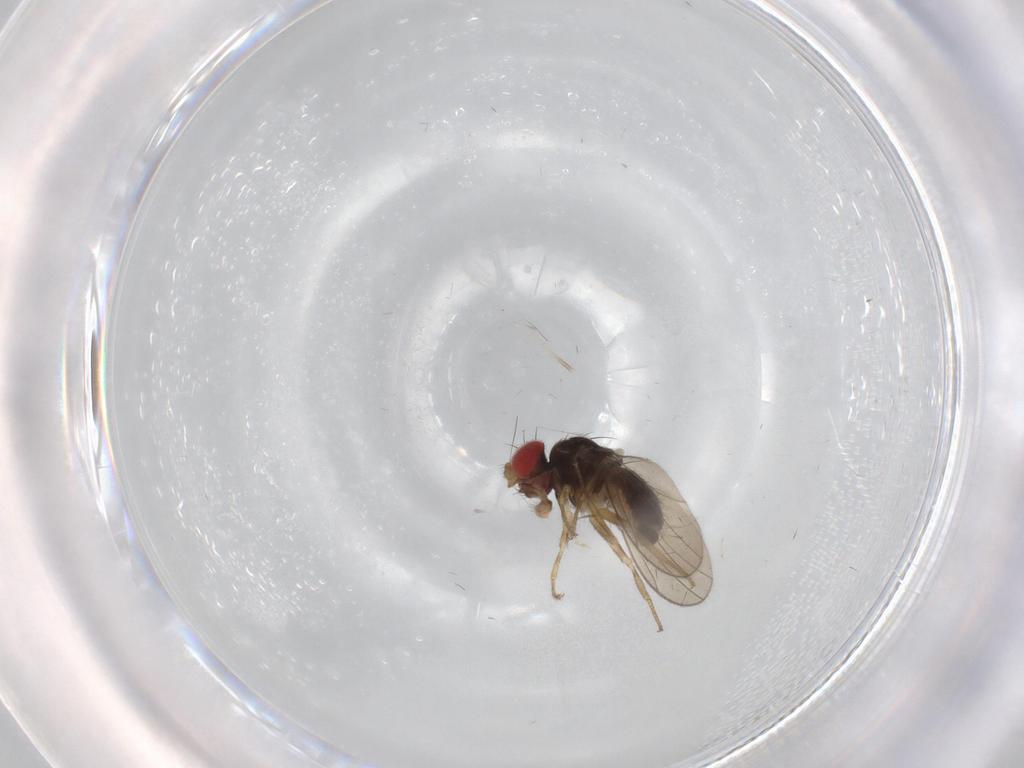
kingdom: Animalia
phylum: Arthropoda
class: Insecta
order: Diptera
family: Drosophilidae
